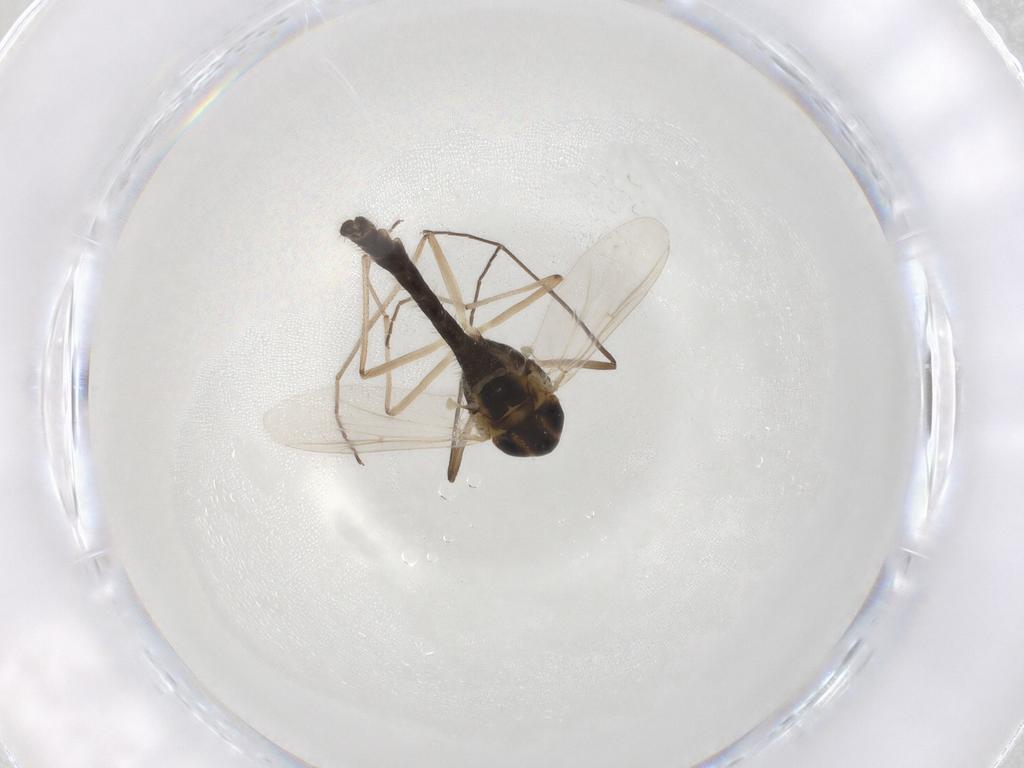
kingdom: Animalia
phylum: Arthropoda
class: Insecta
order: Diptera
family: Chironomidae
